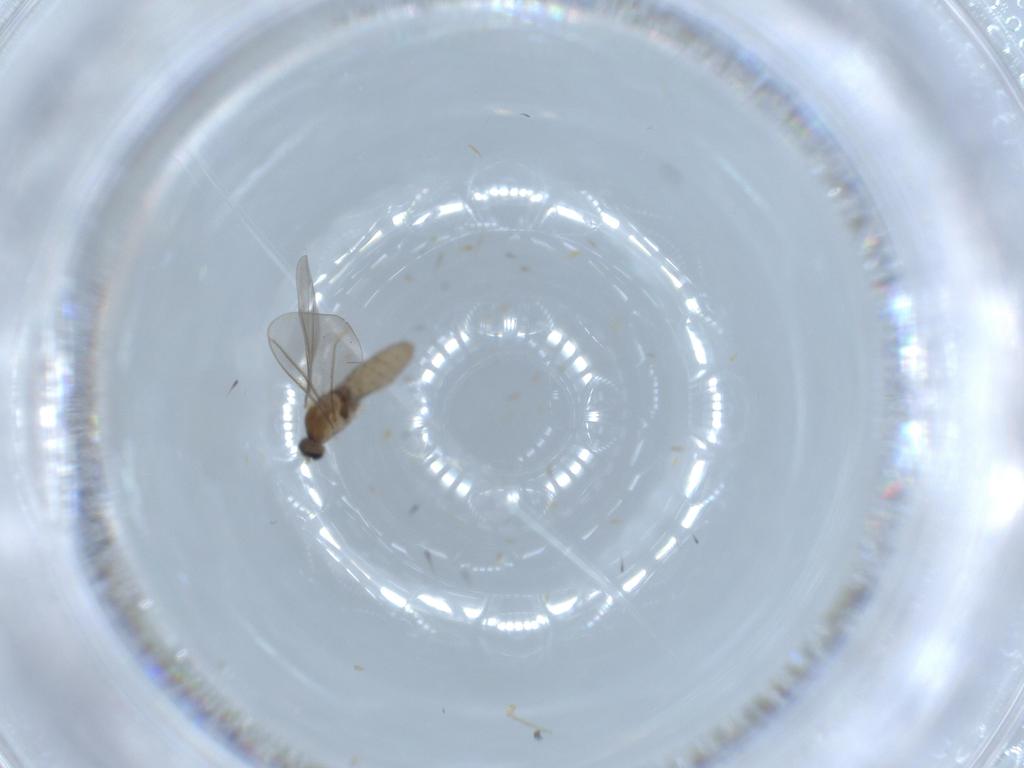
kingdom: Animalia
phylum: Arthropoda
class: Insecta
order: Diptera
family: Cecidomyiidae
